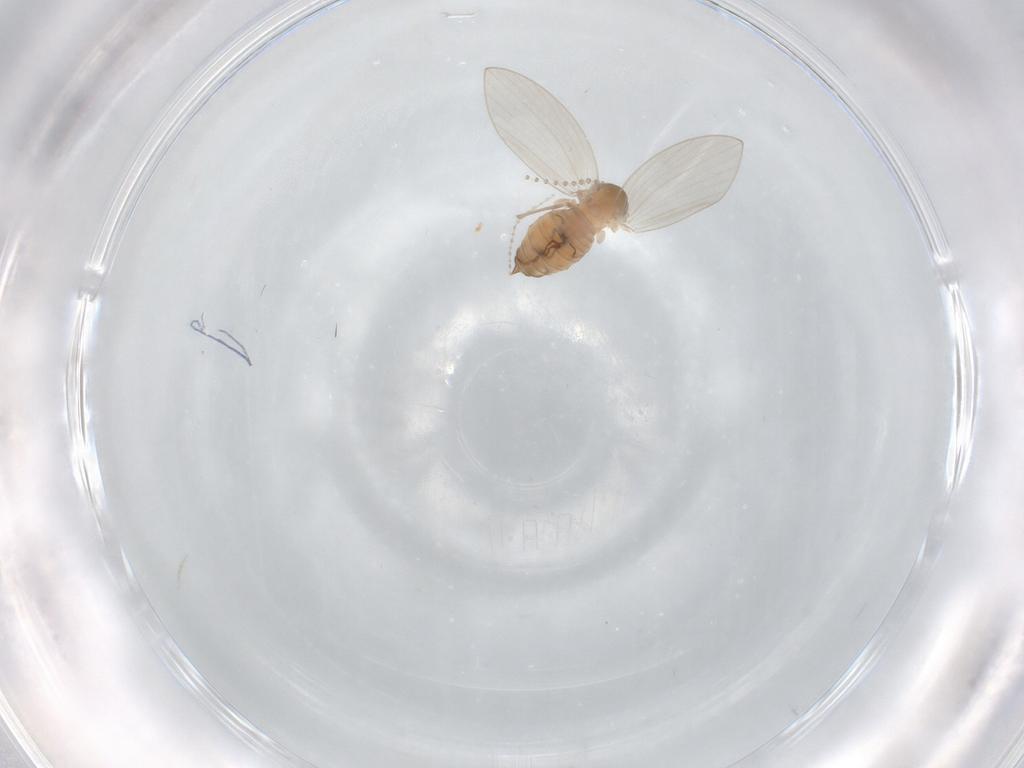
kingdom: Animalia
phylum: Arthropoda
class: Insecta
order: Diptera
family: Psychodidae
